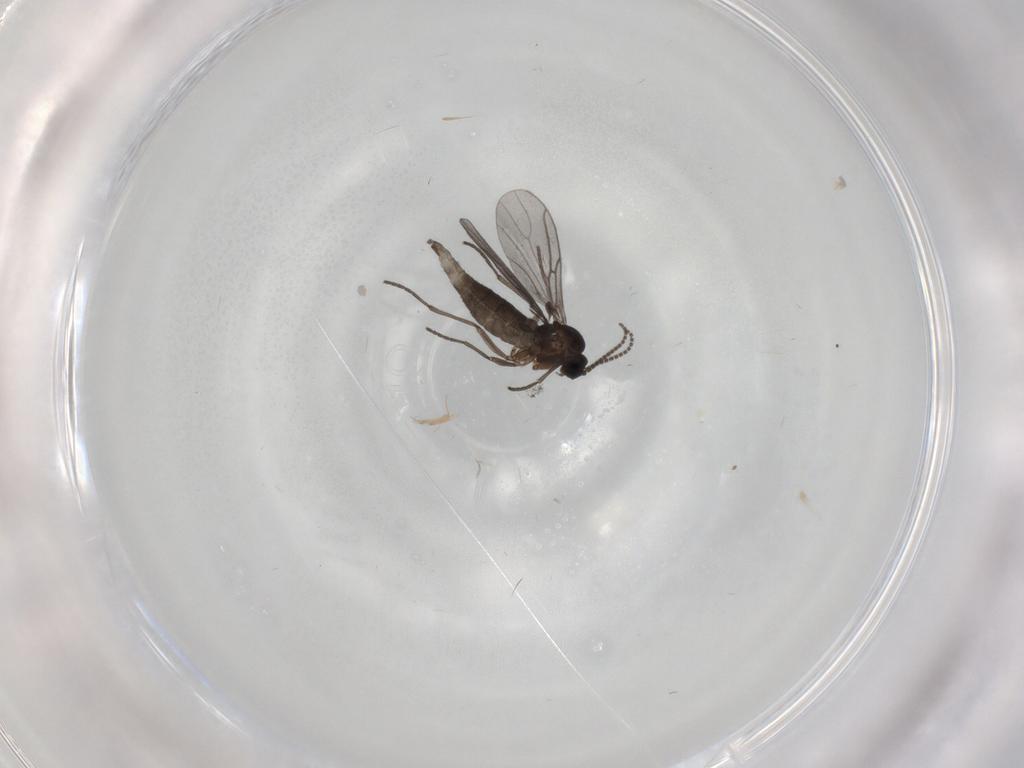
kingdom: Animalia
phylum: Arthropoda
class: Insecta
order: Diptera
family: Sciaridae
